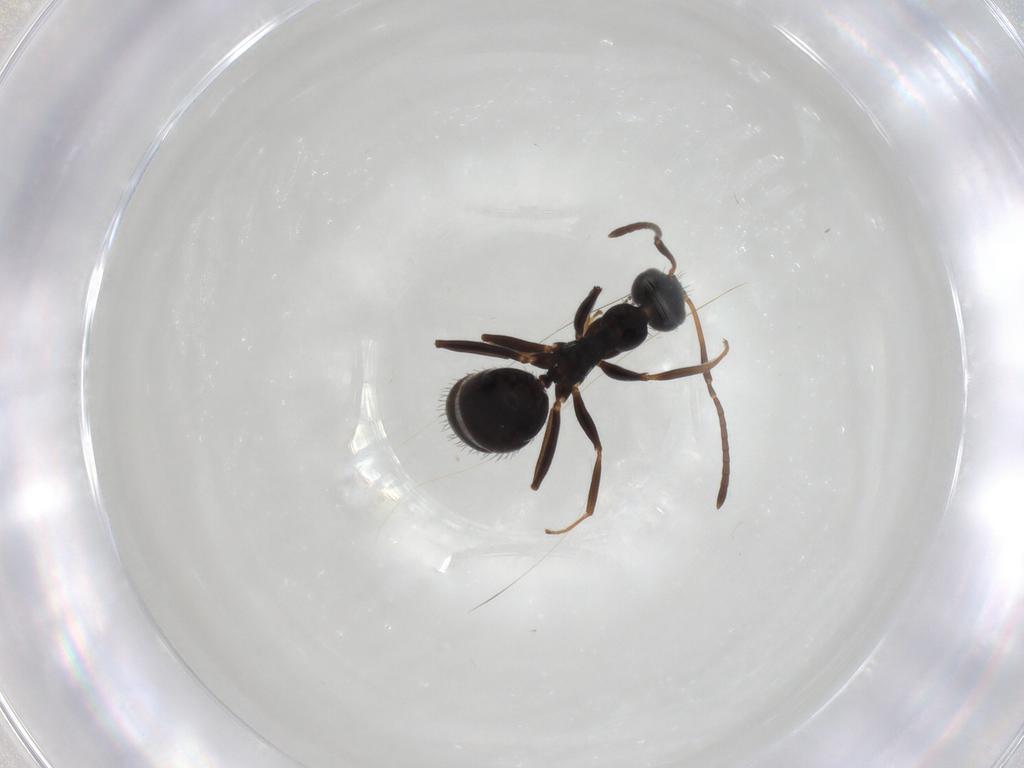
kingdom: Animalia
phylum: Arthropoda
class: Insecta
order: Hymenoptera
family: Formicidae
